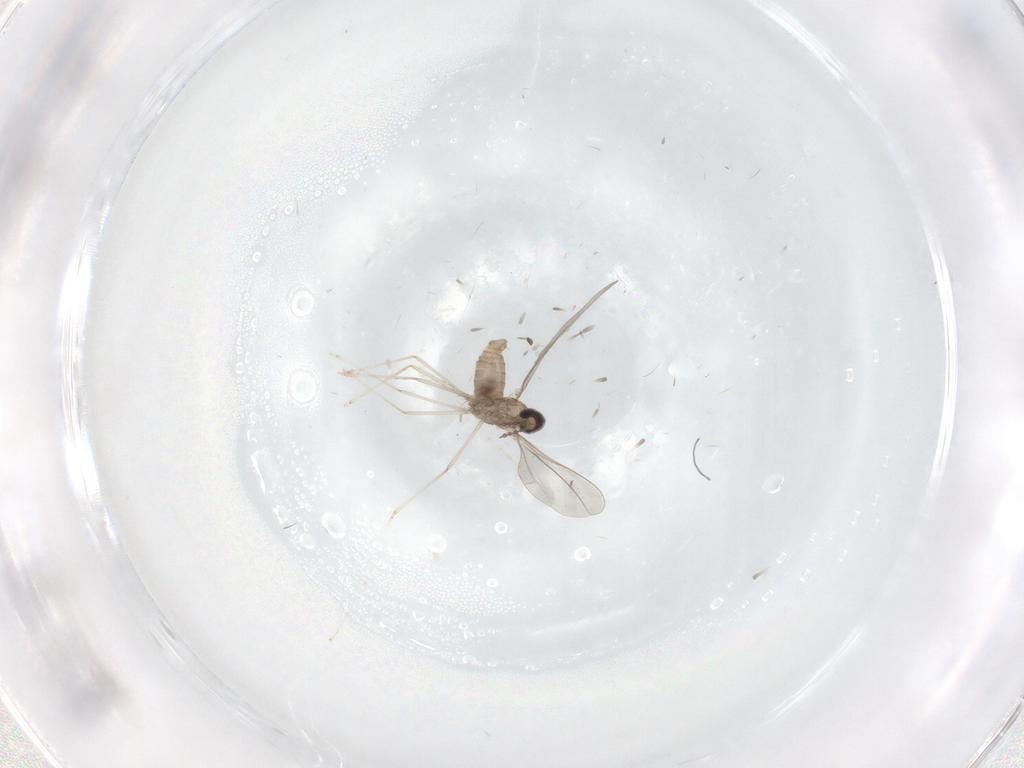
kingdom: Animalia
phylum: Arthropoda
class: Insecta
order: Diptera
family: Cecidomyiidae
